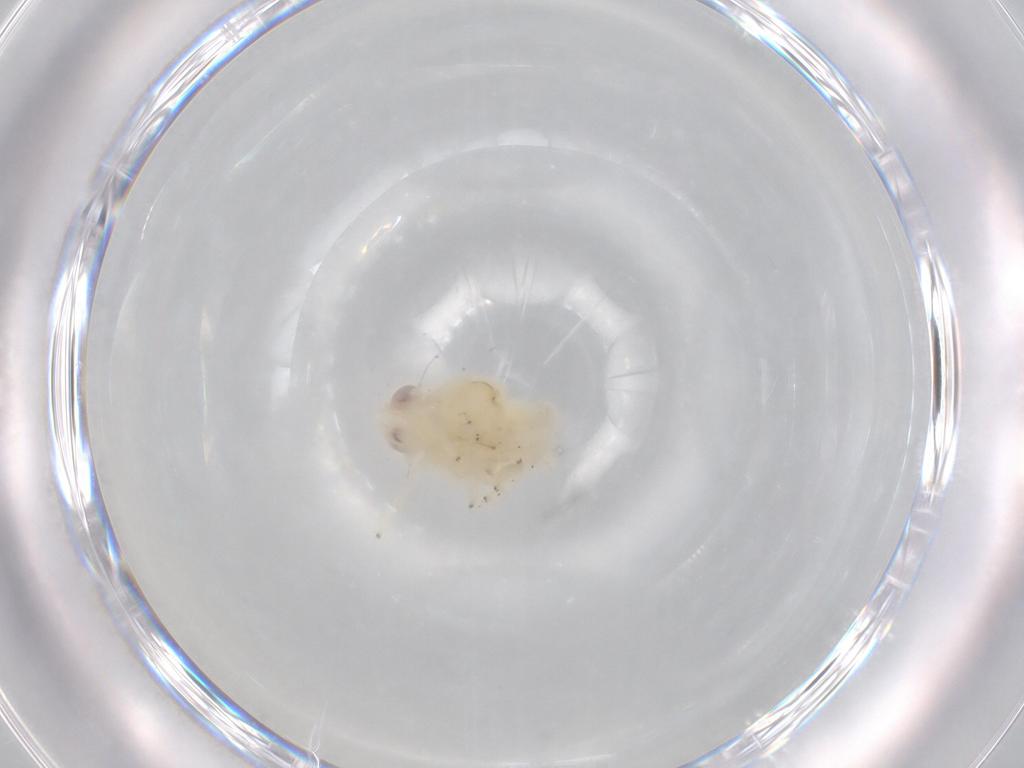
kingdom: Animalia
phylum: Arthropoda
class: Insecta
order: Hemiptera
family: Nogodinidae
